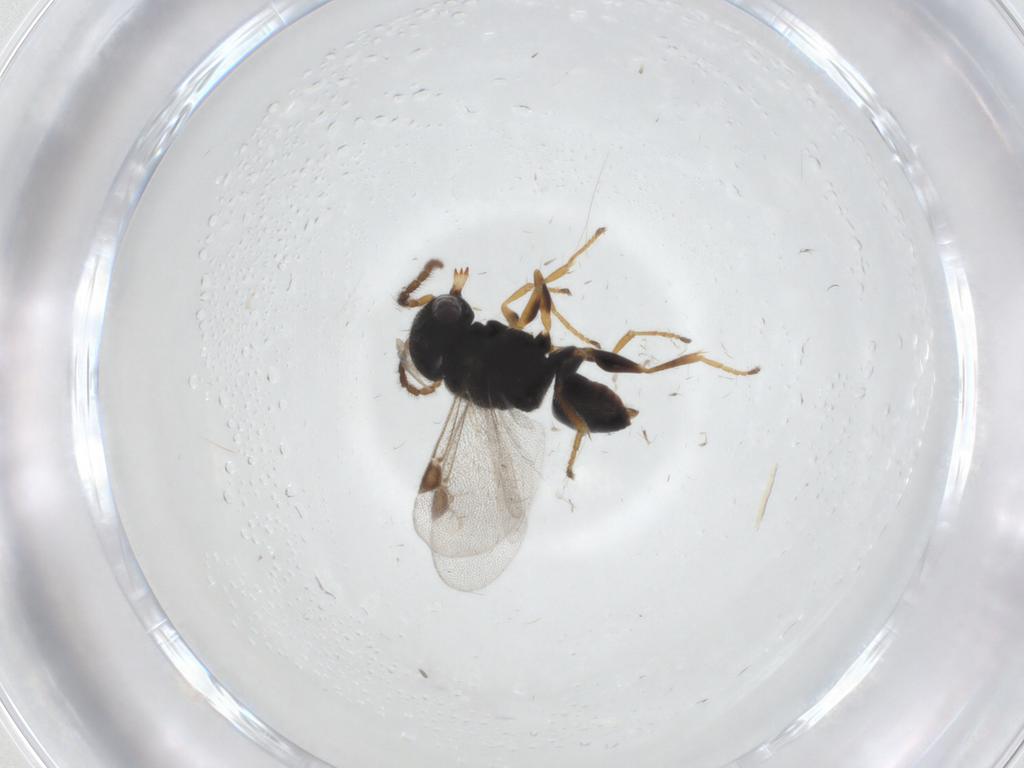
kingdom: Animalia
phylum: Arthropoda
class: Insecta
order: Hymenoptera
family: Dryinidae
